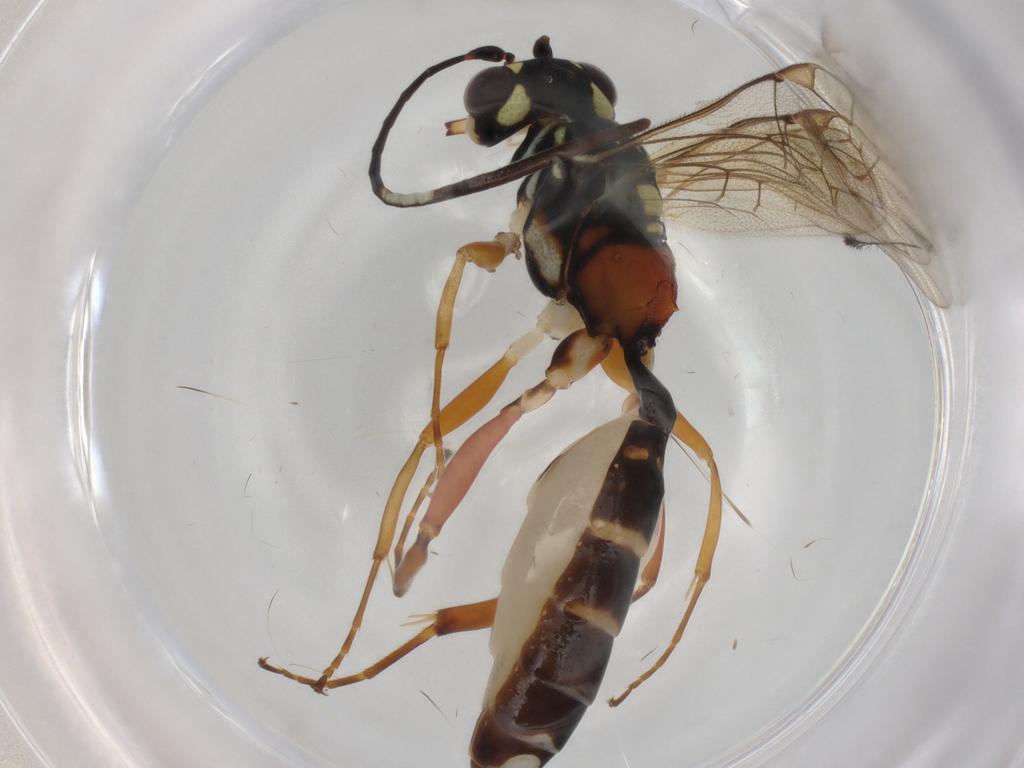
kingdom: Animalia
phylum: Arthropoda
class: Insecta
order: Hymenoptera
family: Ichneumonidae
